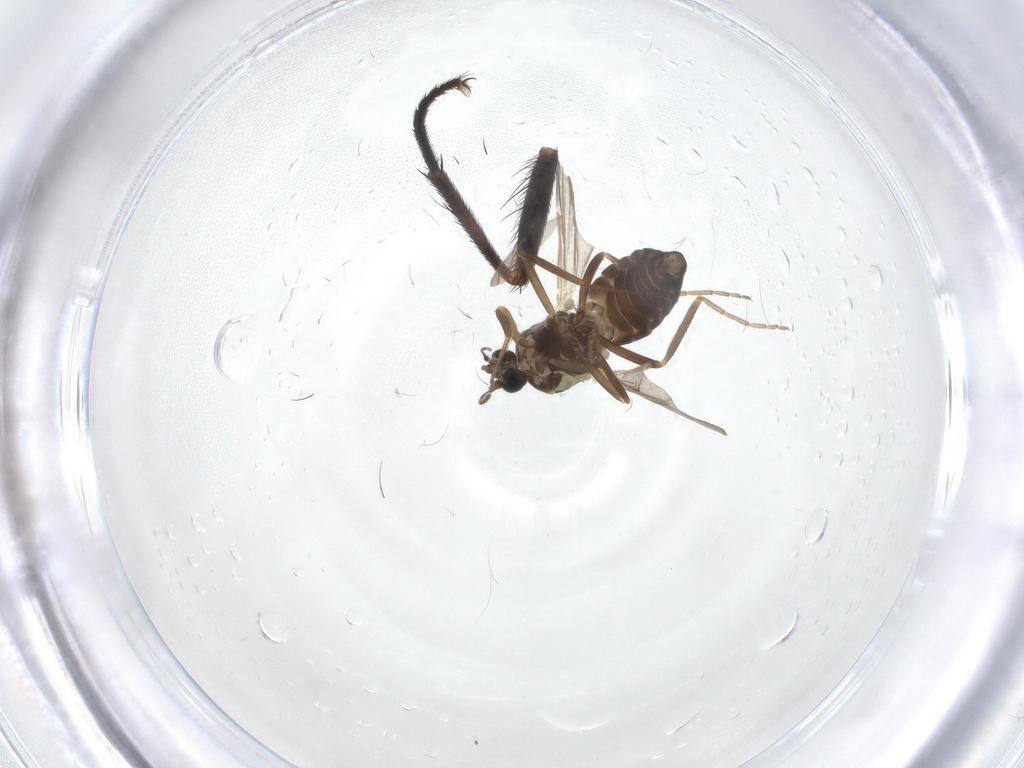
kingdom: Animalia
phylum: Arthropoda
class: Insecta
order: Diptera
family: Ceratopogonidae
